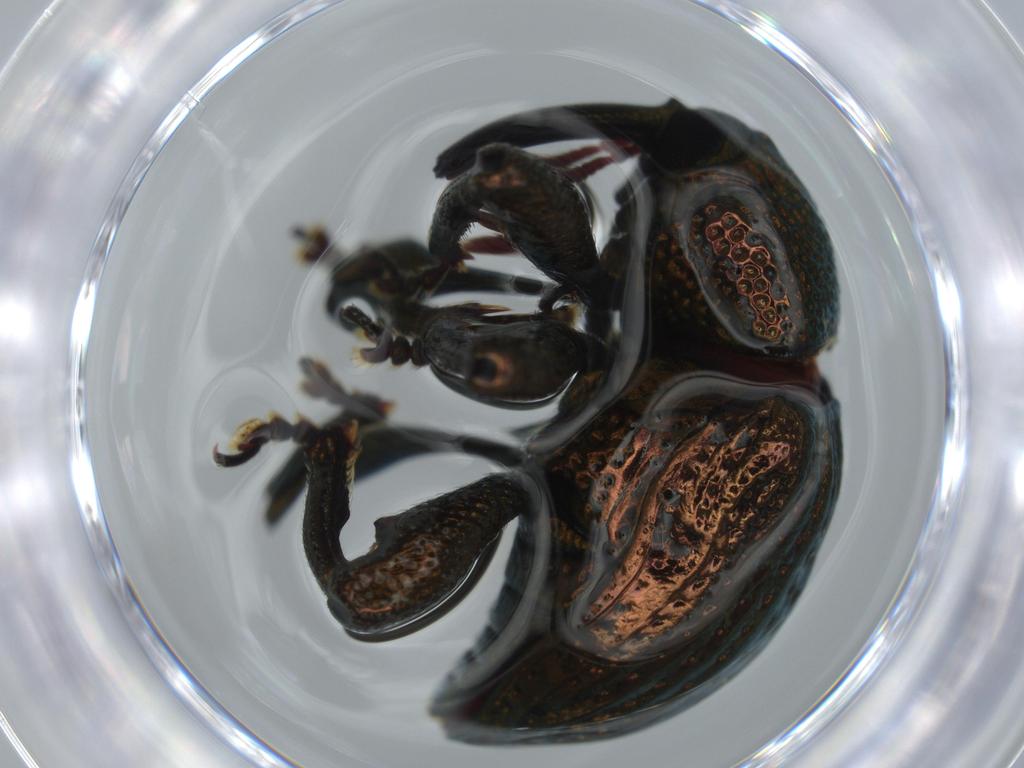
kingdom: Animalia
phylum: Arthropoda
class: Insecta
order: Coleoptera
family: Curculionidae
